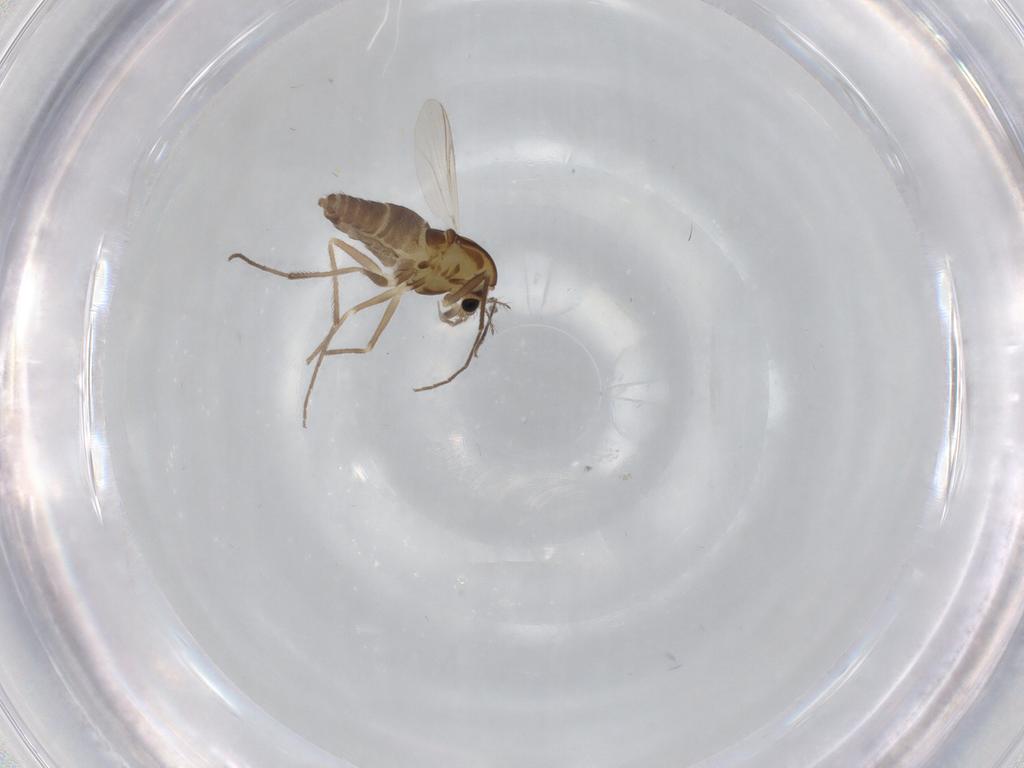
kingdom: Animalia
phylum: Arthropoda
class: Insecta
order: Diptera
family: Chironomidae
